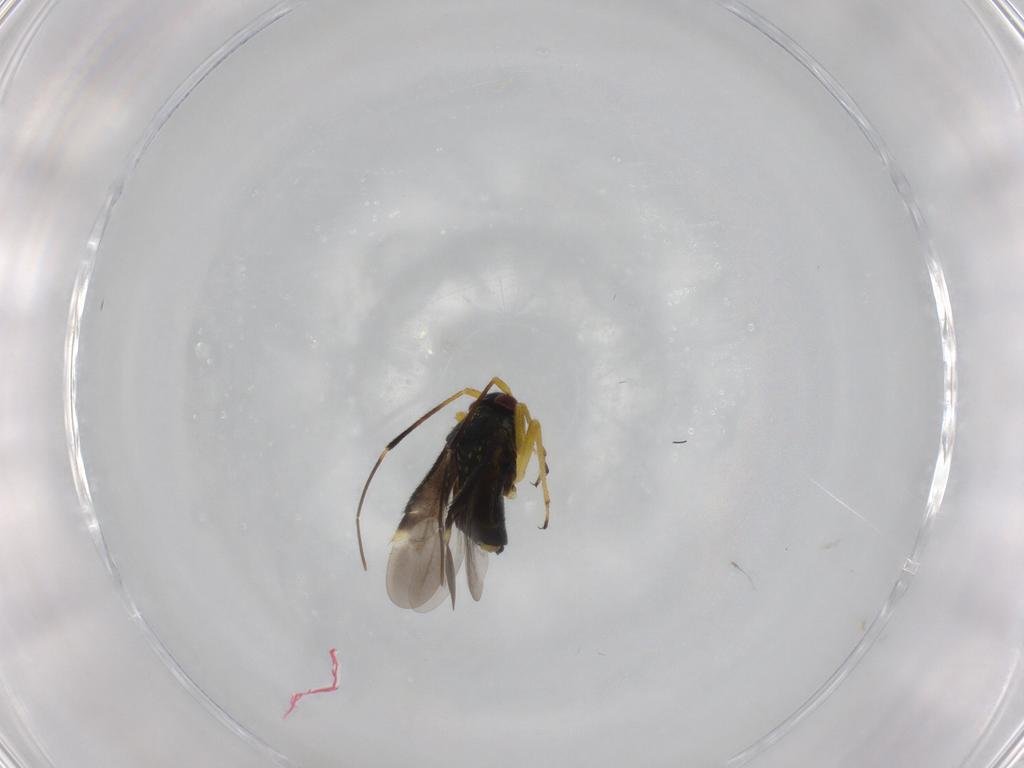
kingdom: Animalia
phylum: Arthropoda
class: Insecta
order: Hemiptera
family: Miridae
